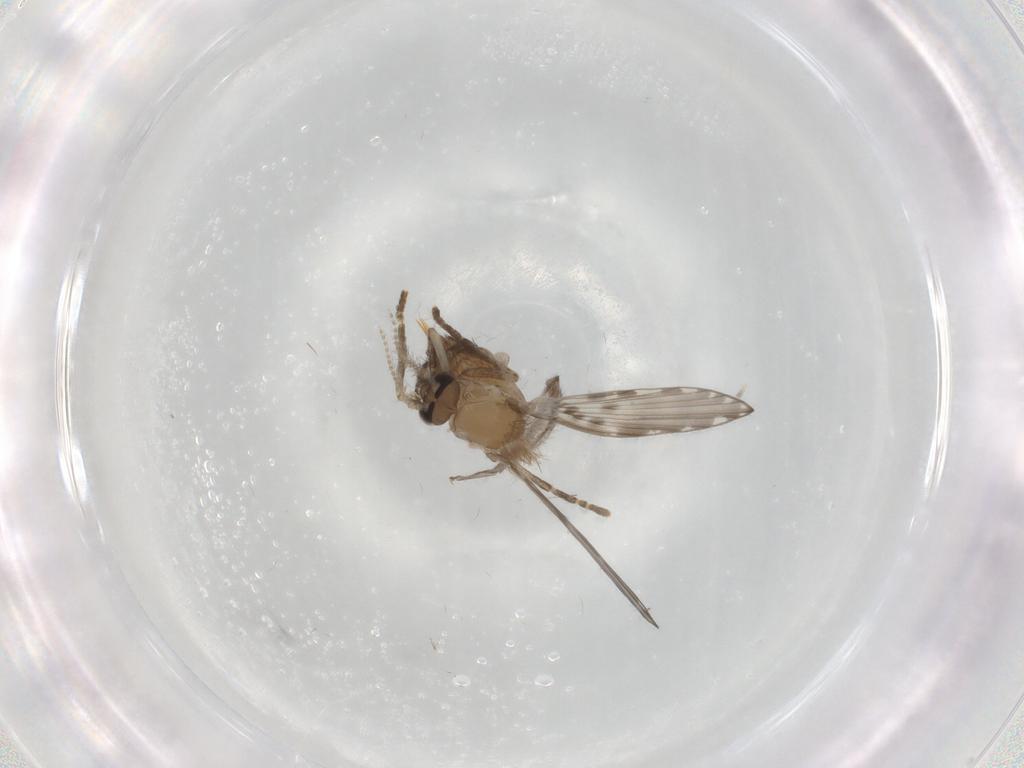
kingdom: Animalia
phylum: Arthropoda
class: Insecta
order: Diptera
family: Psychodidae
